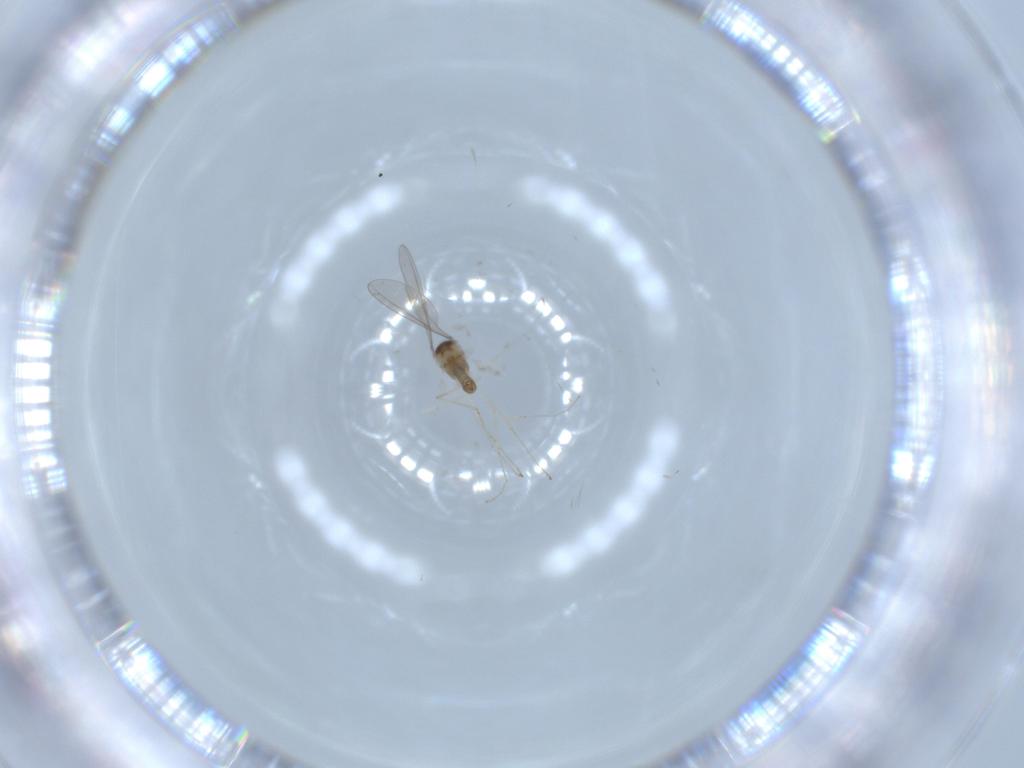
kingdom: Animalia
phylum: Arthropoda
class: Insecta
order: Diptera
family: Cecidomyiidae
